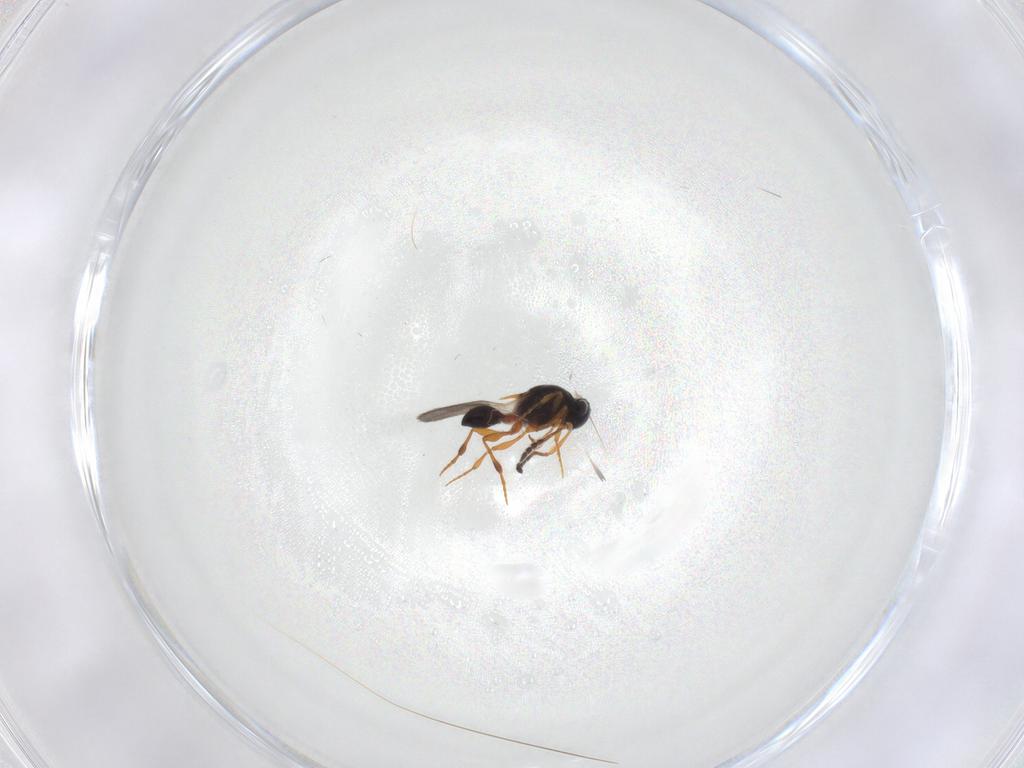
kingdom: Animalia
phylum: Arthropoda
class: Insecta
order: Hymenoptera
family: Platygastridae
